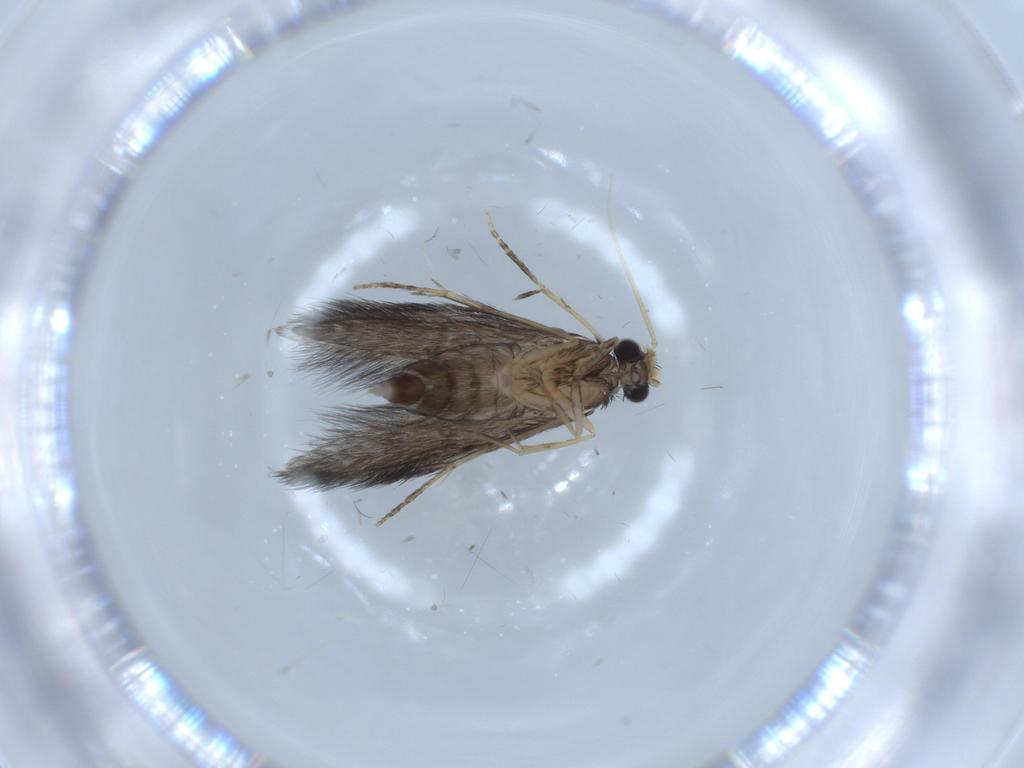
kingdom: Animalia
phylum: Arthropoda
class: Insecta
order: Trichoptera
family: Hydroptilidae
